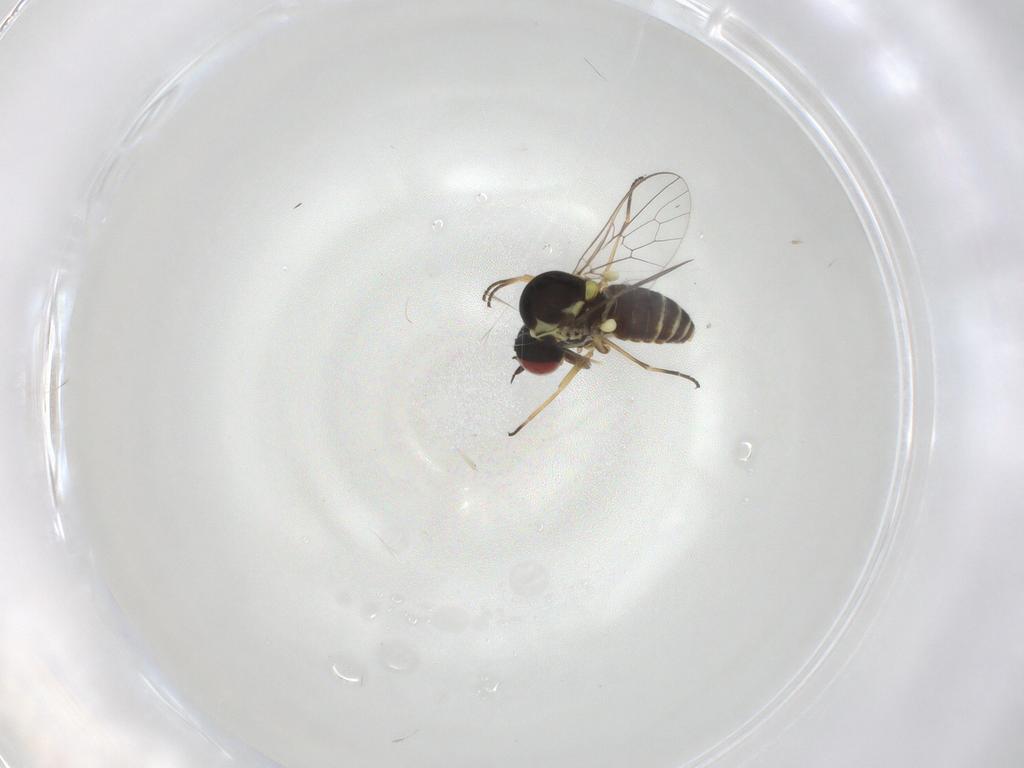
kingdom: Animalia
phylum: Arthropoda
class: Insecta
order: Diptera
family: Bombyliidae
